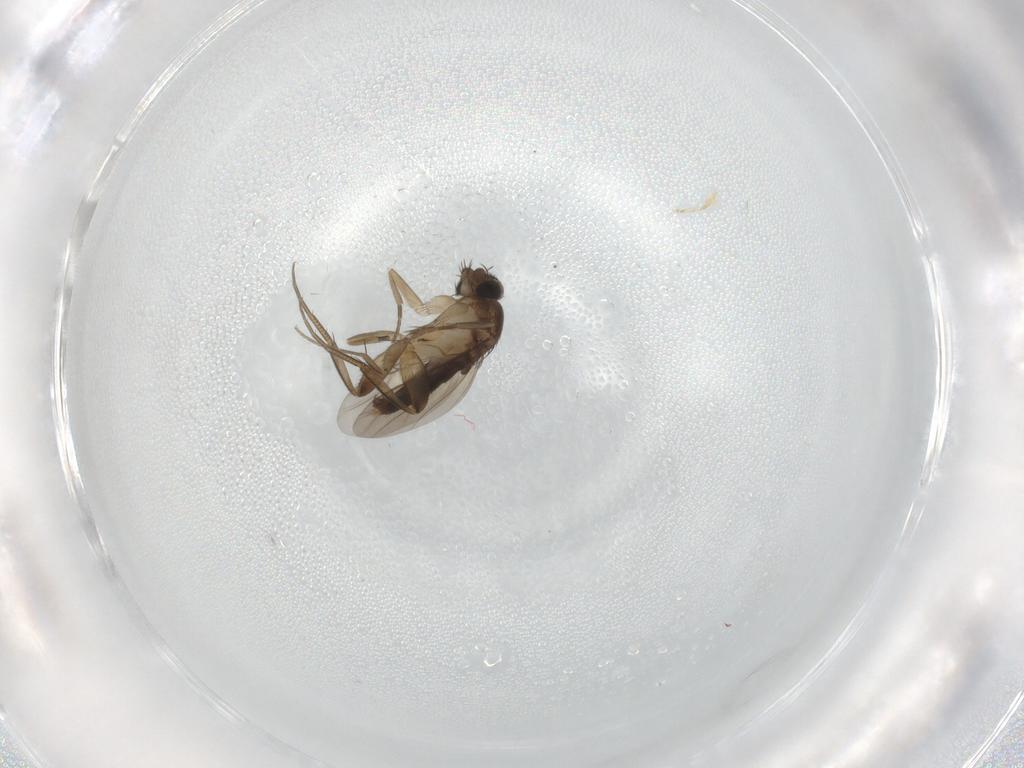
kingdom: Animalia
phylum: Arthropoda
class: Insecta
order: Diptera
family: Phoridae
